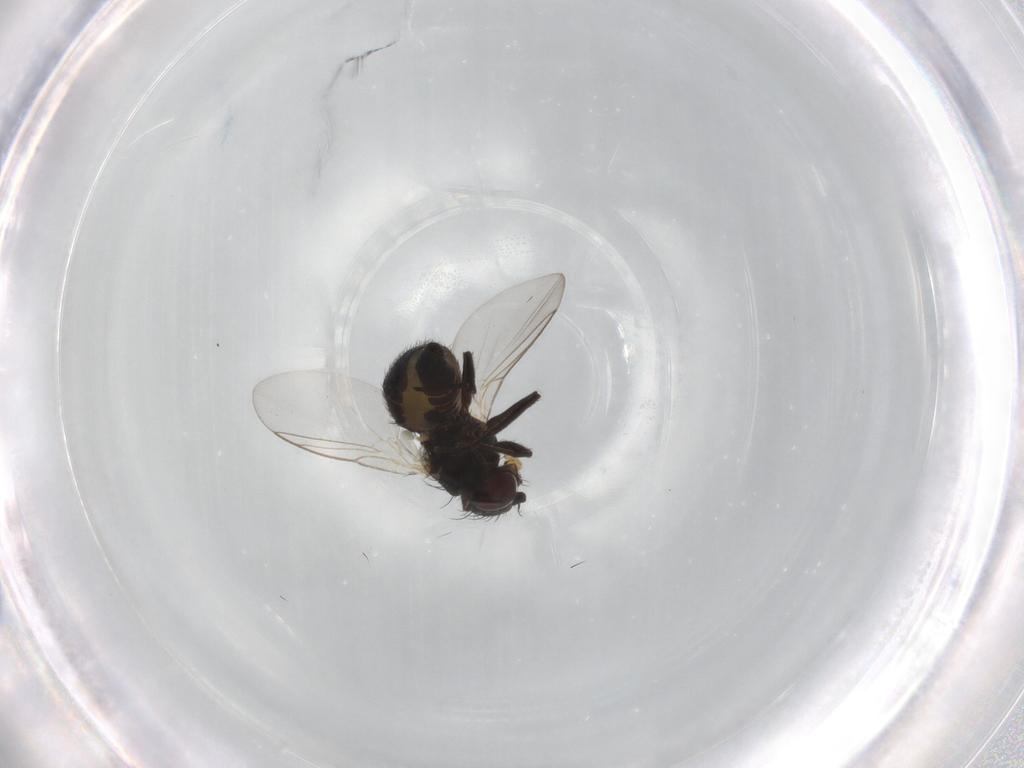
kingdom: Animalia
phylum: Arthropoda
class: Insecta
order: Diptera
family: Agromyzidae
